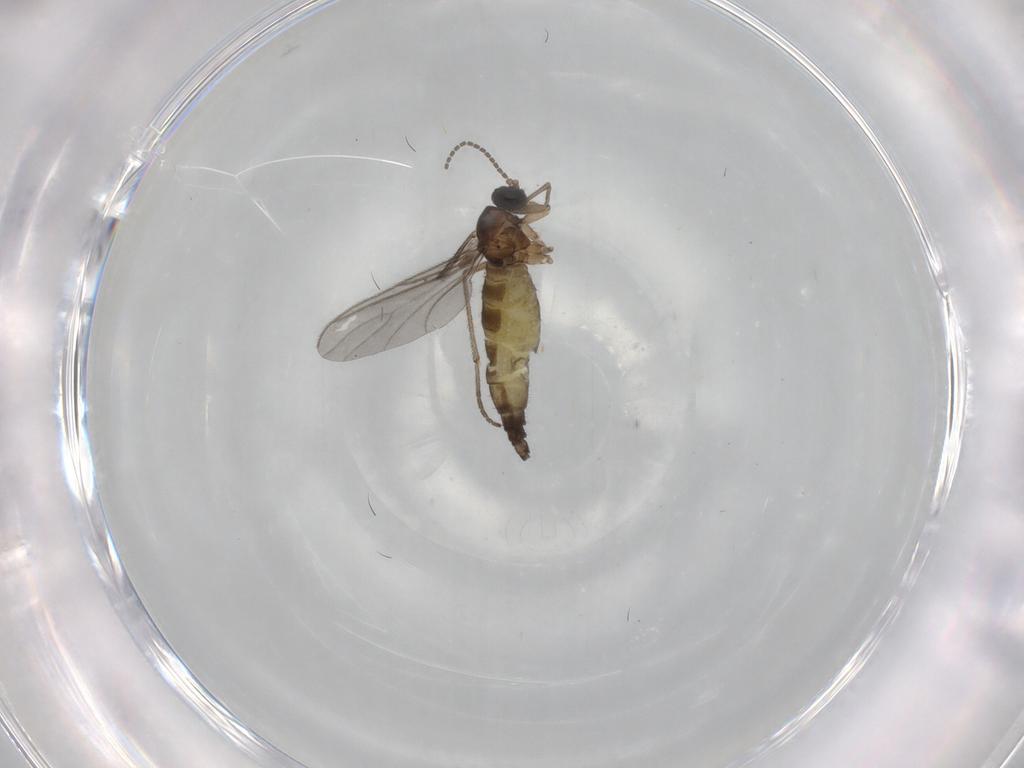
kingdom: Animalia
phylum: Arthropoda
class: Insecta
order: Diptera
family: Sciaridae
